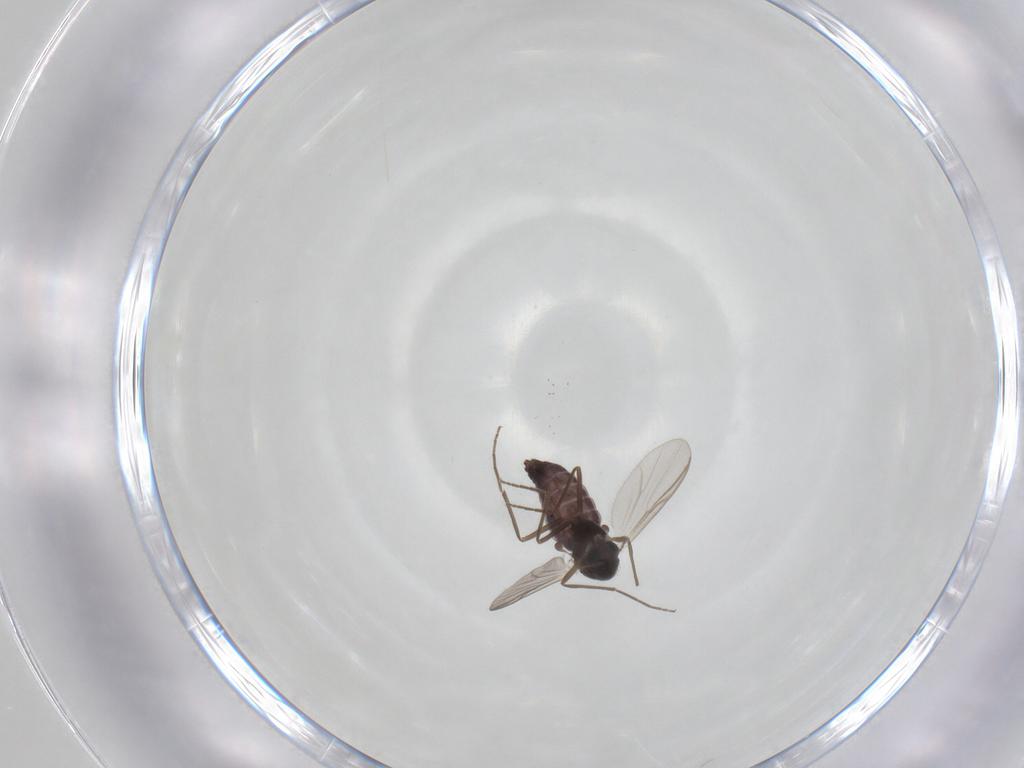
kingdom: Animalia
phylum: Arthropoda
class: Insecta
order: Diptera
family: Chironomidae
